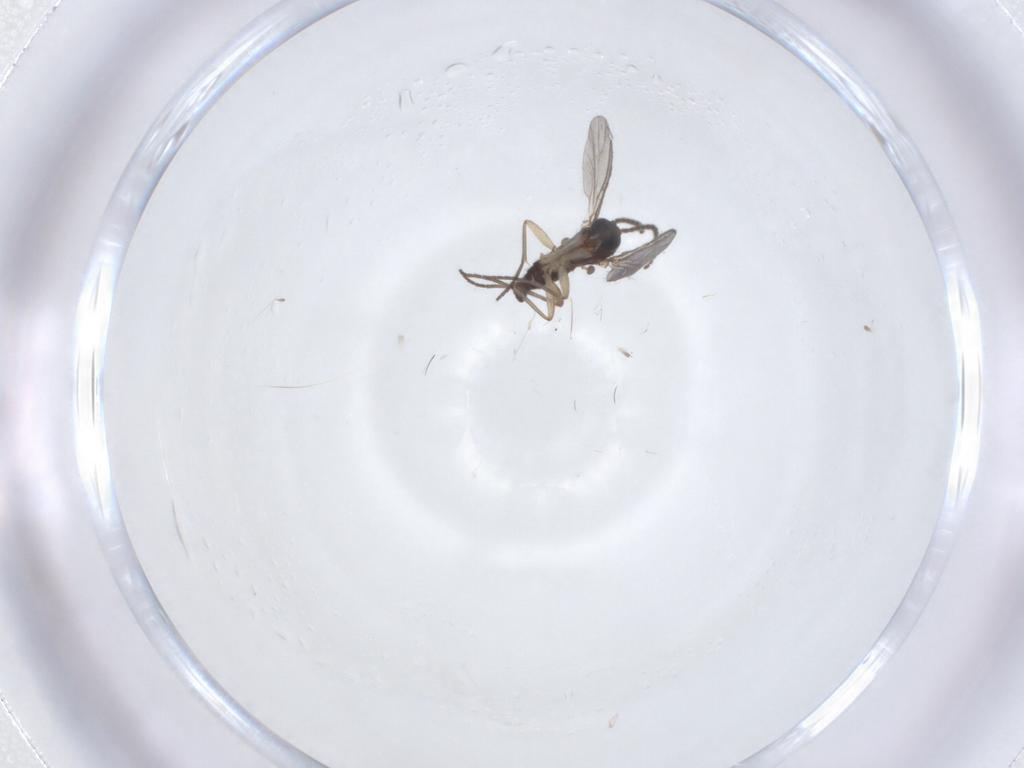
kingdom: Animalia
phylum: Arthropoda
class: Insecta
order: Diptera
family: Sciaridae
